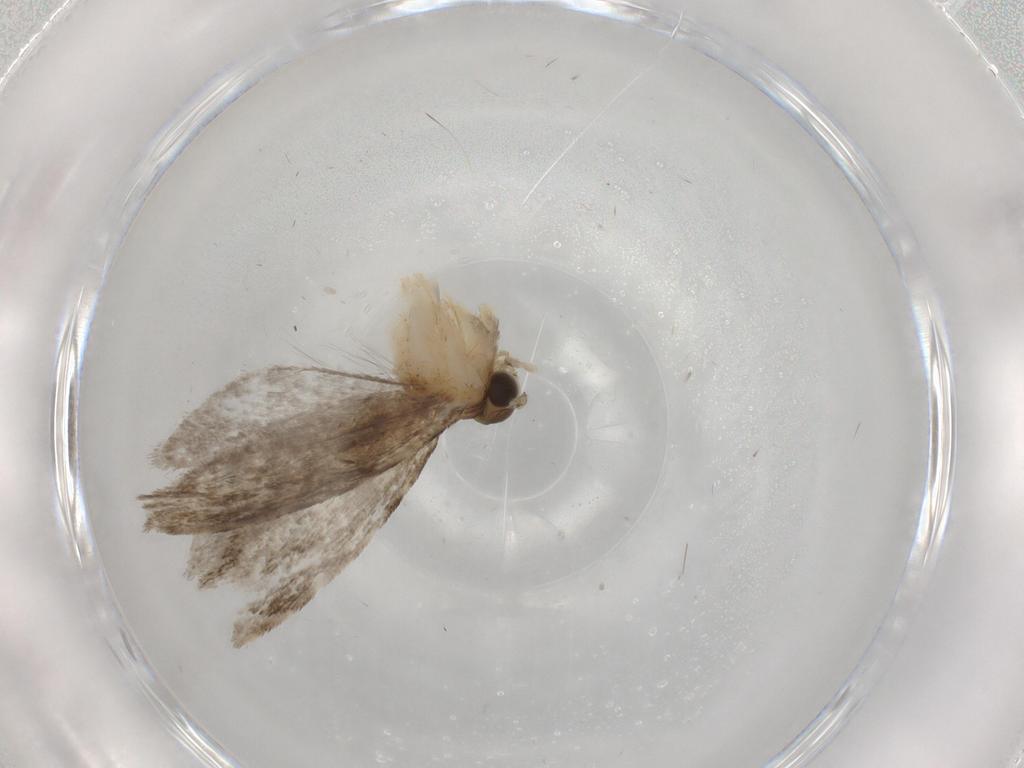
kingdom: Animalia
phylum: Arthropoda
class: Insecta
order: Lepidoptera
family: Tineidae
